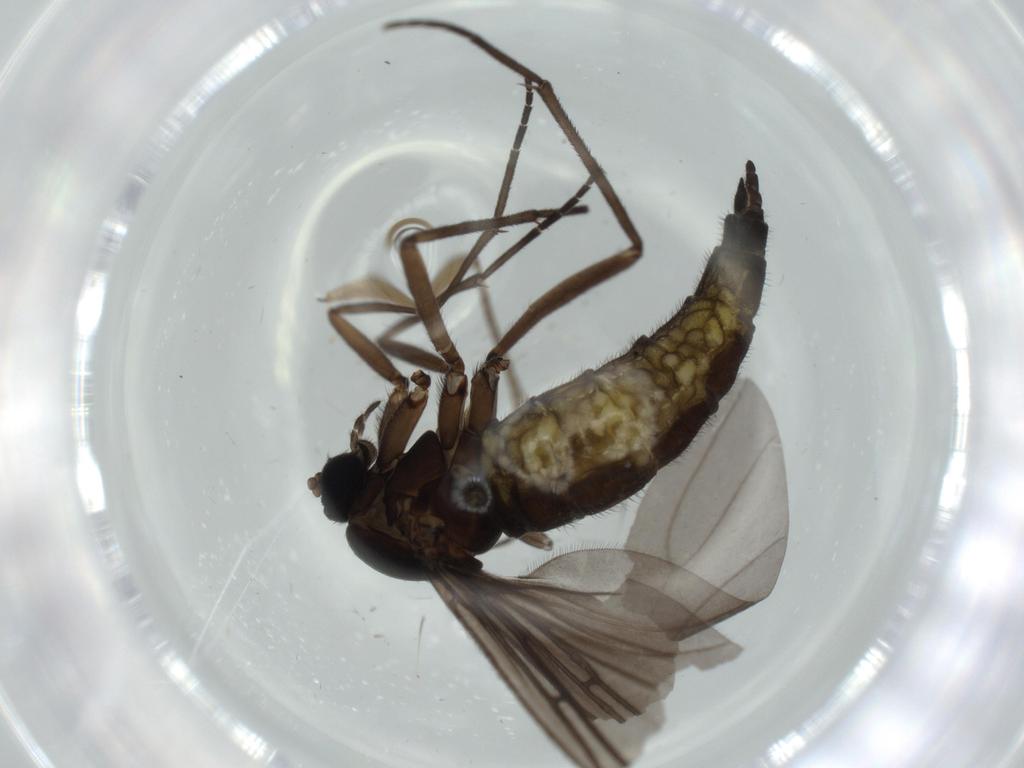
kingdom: Animalia
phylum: Arthropoda
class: Insecta
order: Diptera
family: Sciaridae
